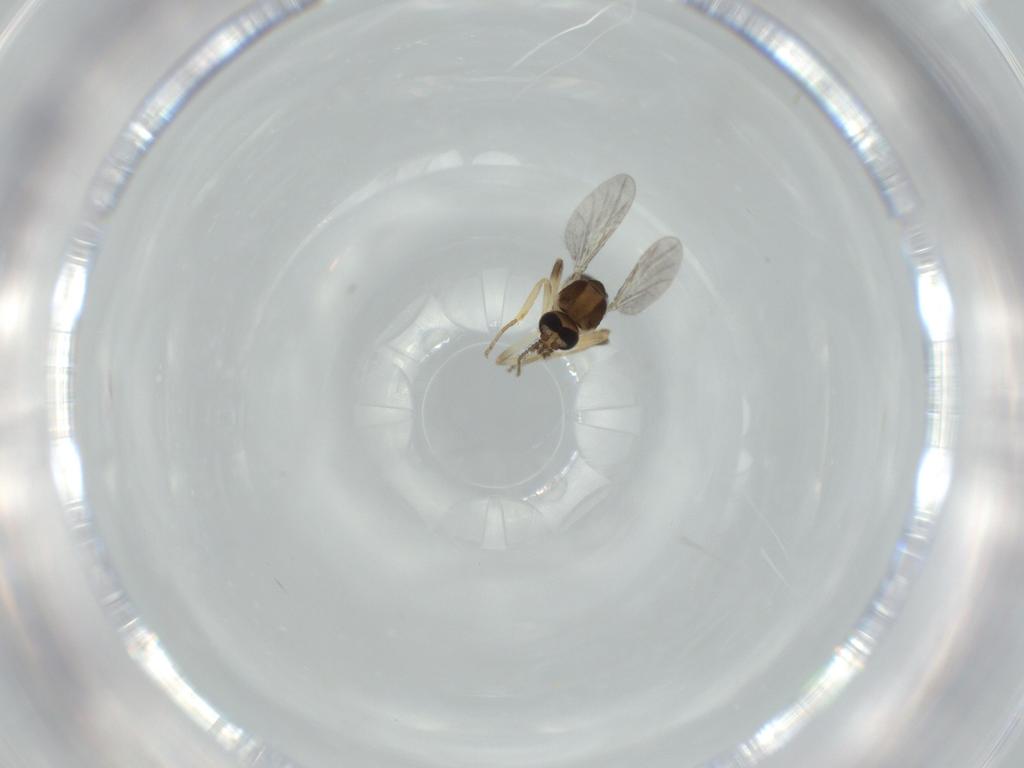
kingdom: Animalia
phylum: Arthropoda
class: Insecta
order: Diptera
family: Ceratopogonidae
